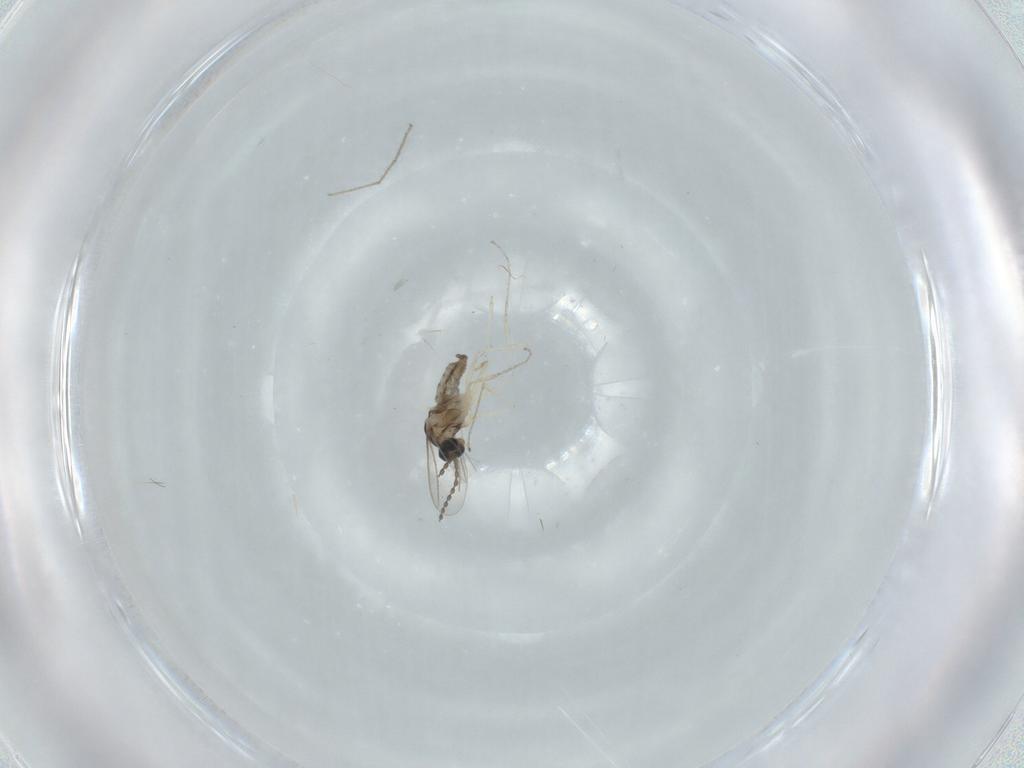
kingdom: Animalia
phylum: Arthropoda
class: Insecta
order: Diptera
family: Cecidomyiidae
